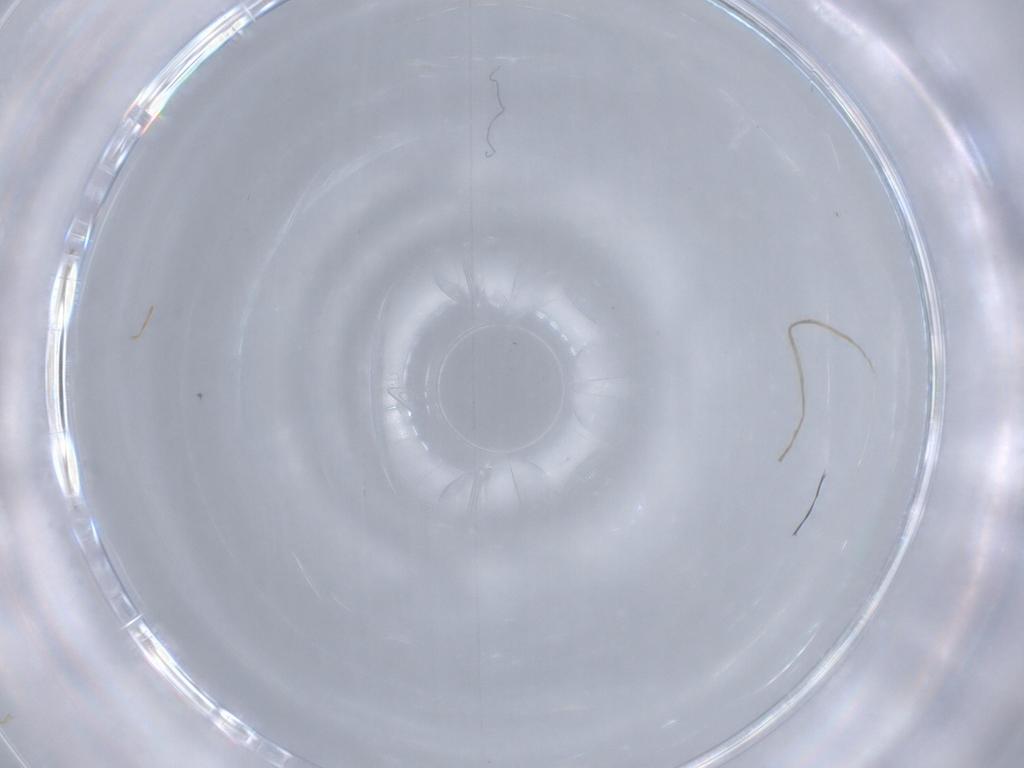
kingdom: Animalia
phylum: Arthropoda
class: Insecta
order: Diptera
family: Cecidomyiidae
